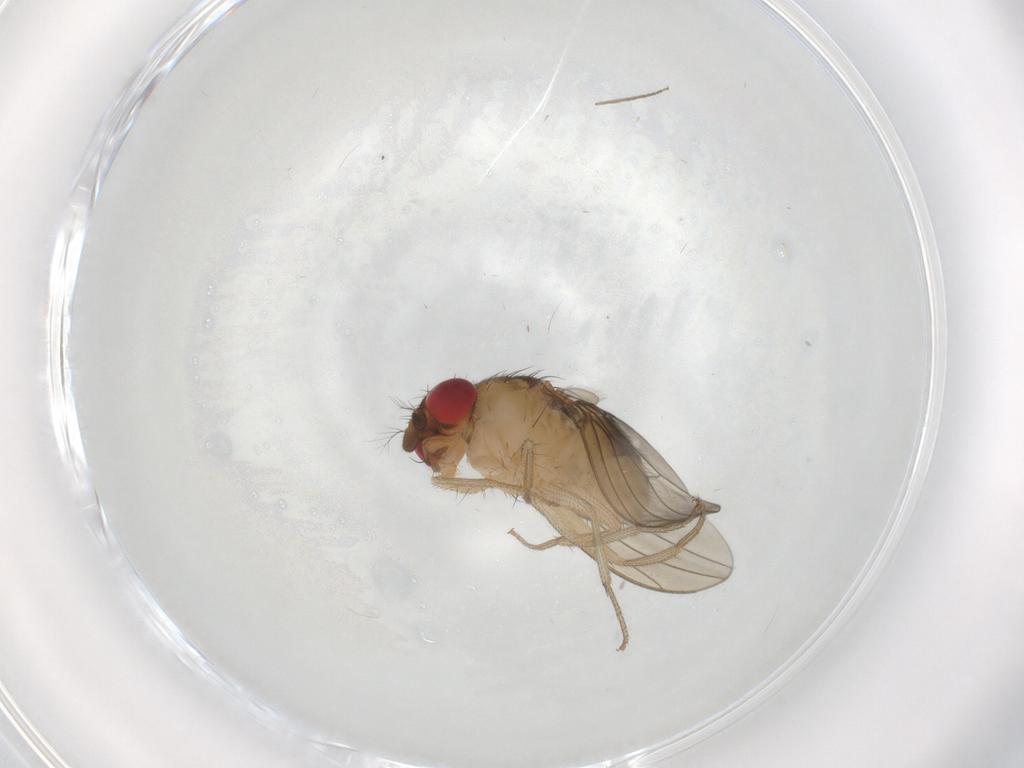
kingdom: Animalia
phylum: Arthropoda
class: Insecta
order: Diptera
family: Drosophilidae
